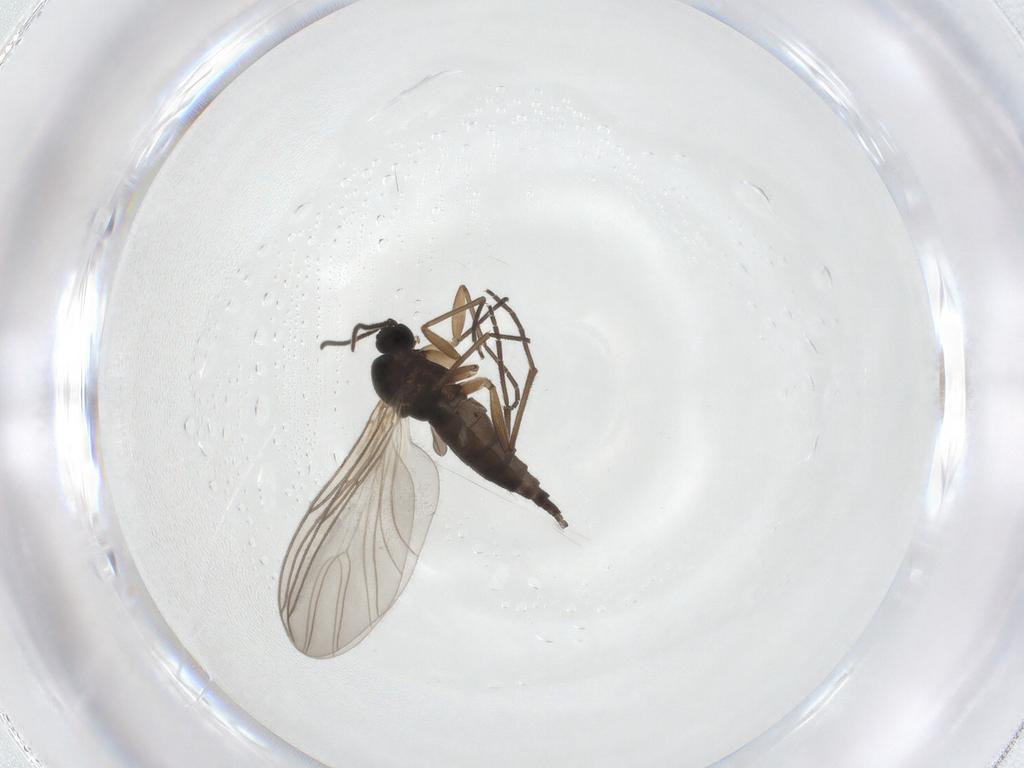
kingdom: Animalia
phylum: Arthropoda
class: Insecta
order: Diptera
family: Sciaridae
